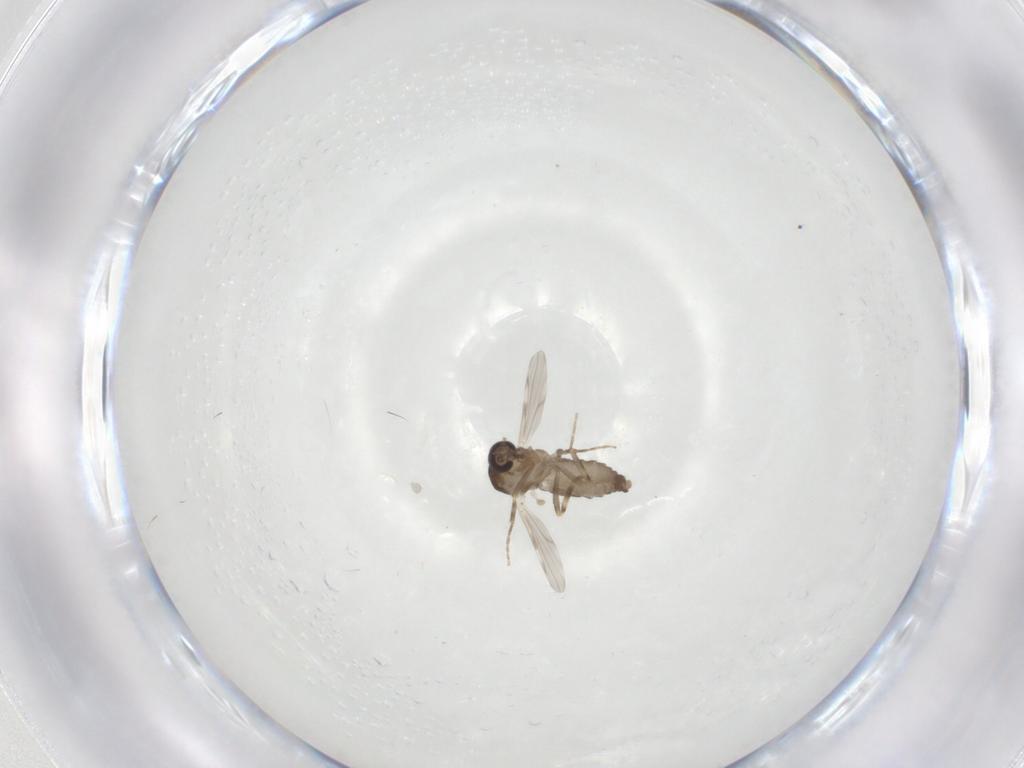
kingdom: Animalia
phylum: Arthropoda
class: Insecta
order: Diptera
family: Ceratopogonidae
